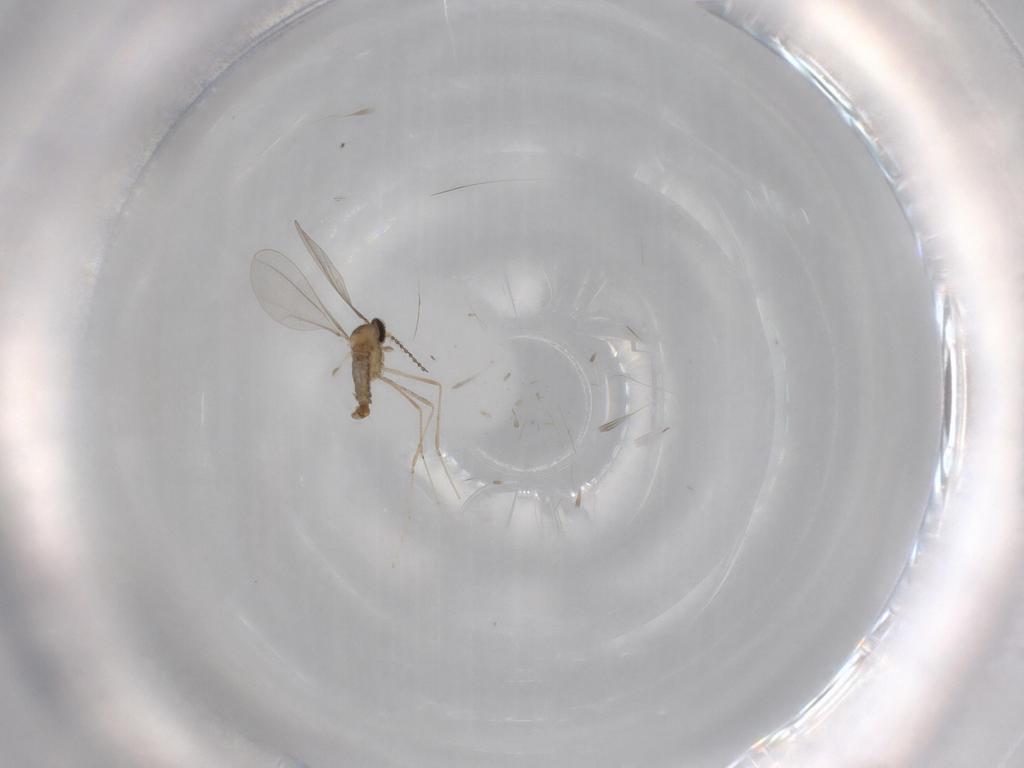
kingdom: Animalia
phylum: Arthropoda
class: Insecta
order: Diptera
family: Cecidomyiidae
